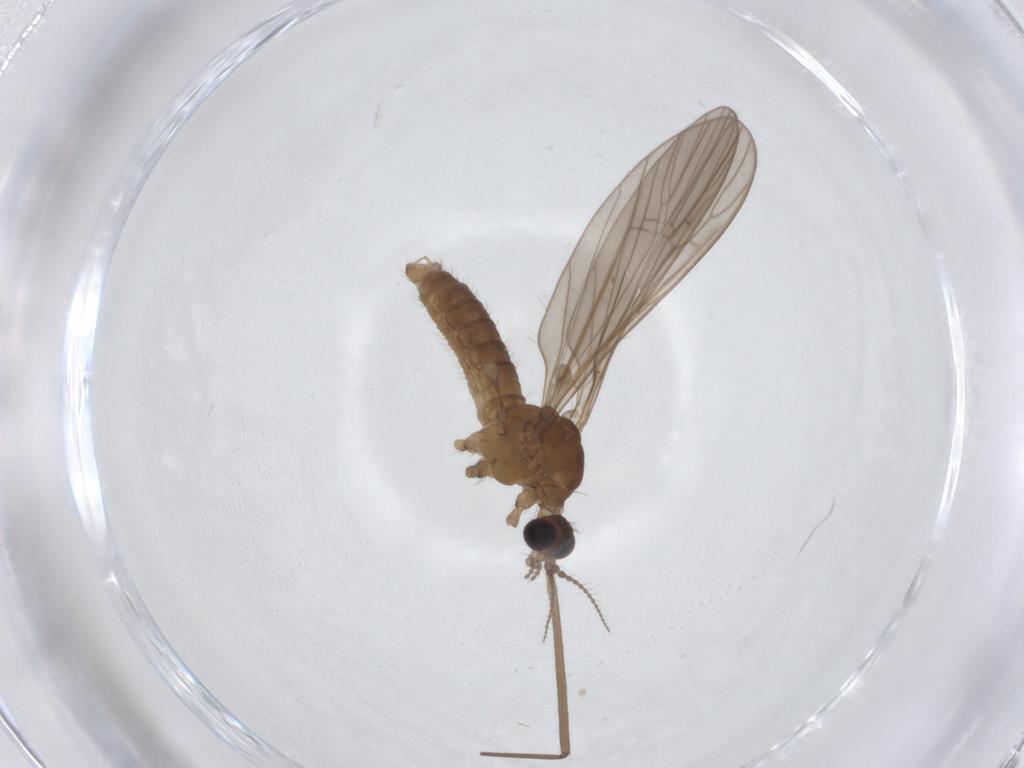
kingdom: Animalia
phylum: Arthropoda
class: Insecta
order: Diptera
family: Limoniidae
